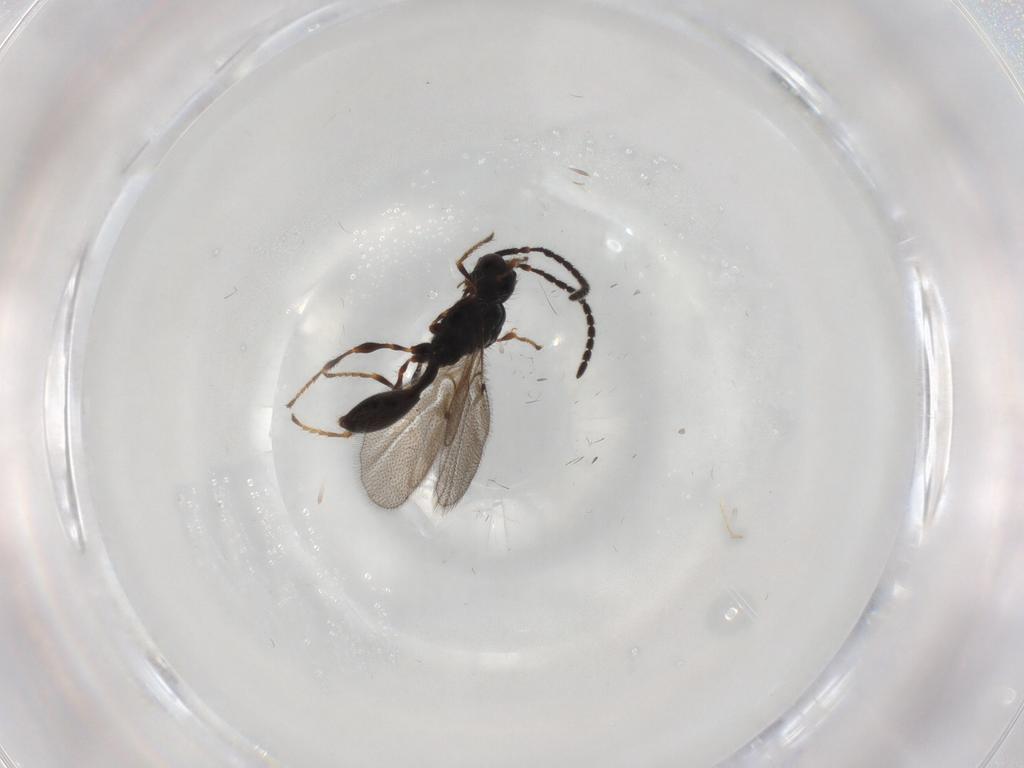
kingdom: Animalia
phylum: Arthropoda
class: Insecta
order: Hymenoptera
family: Diapriidae
